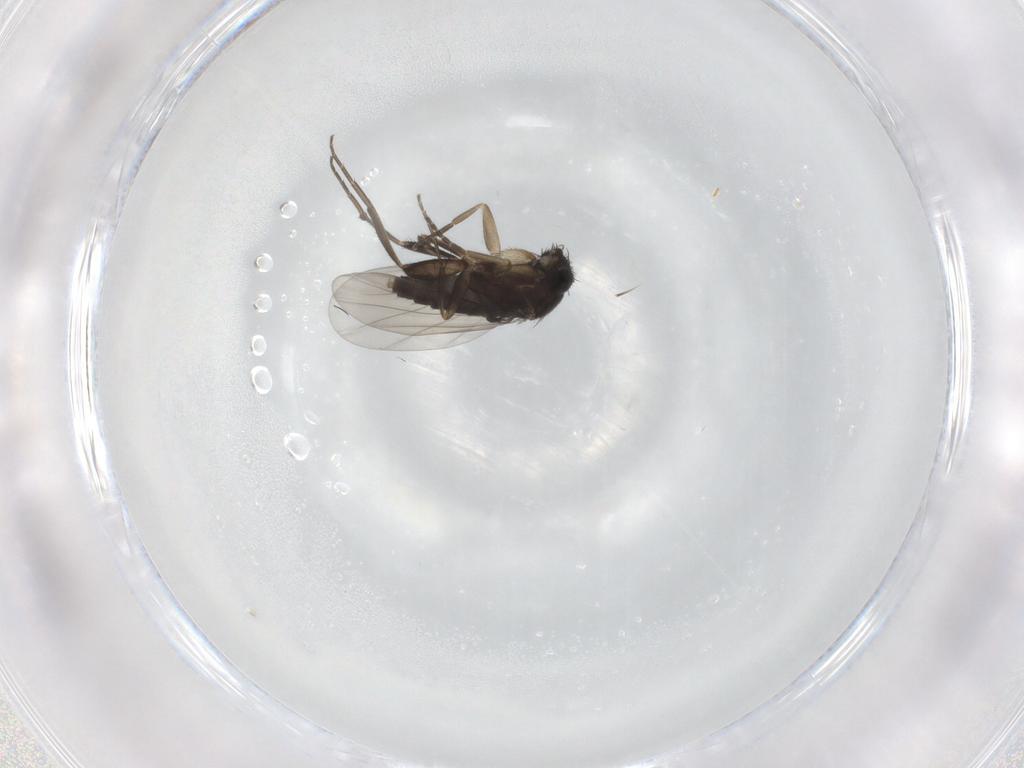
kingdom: Animalia
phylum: Arthropoda
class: Insecta
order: Diptera
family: Phoridae
